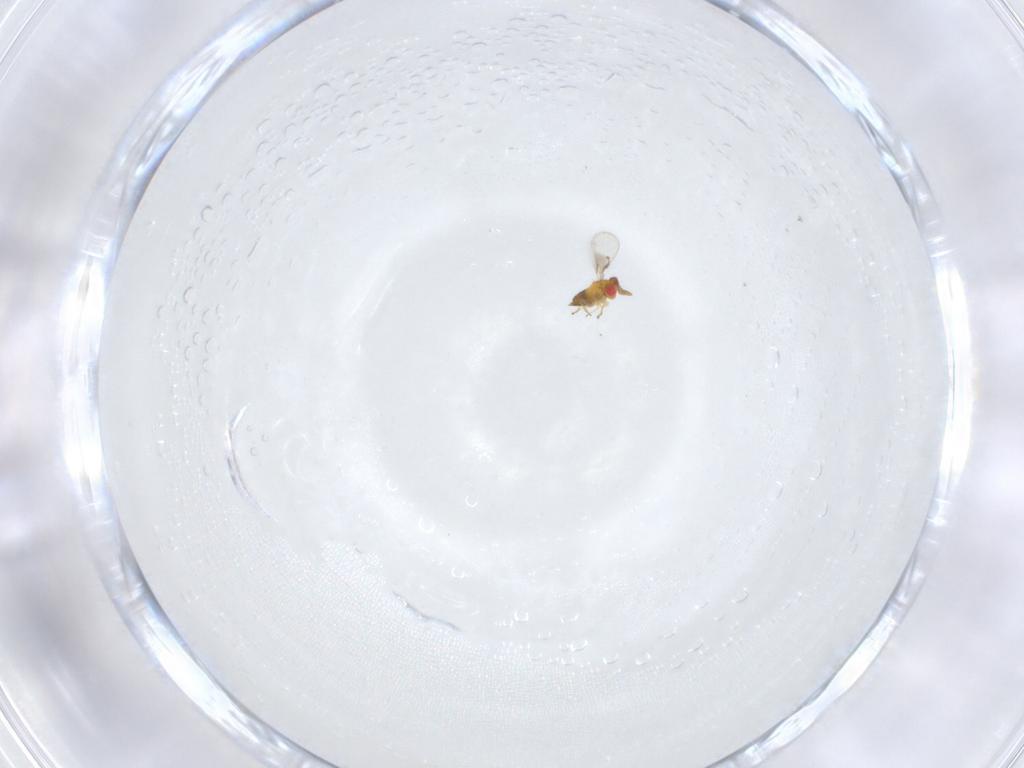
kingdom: Animalia
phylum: Arthropoda
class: Insecta
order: Hymenoptera
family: Trichogrammatidae
